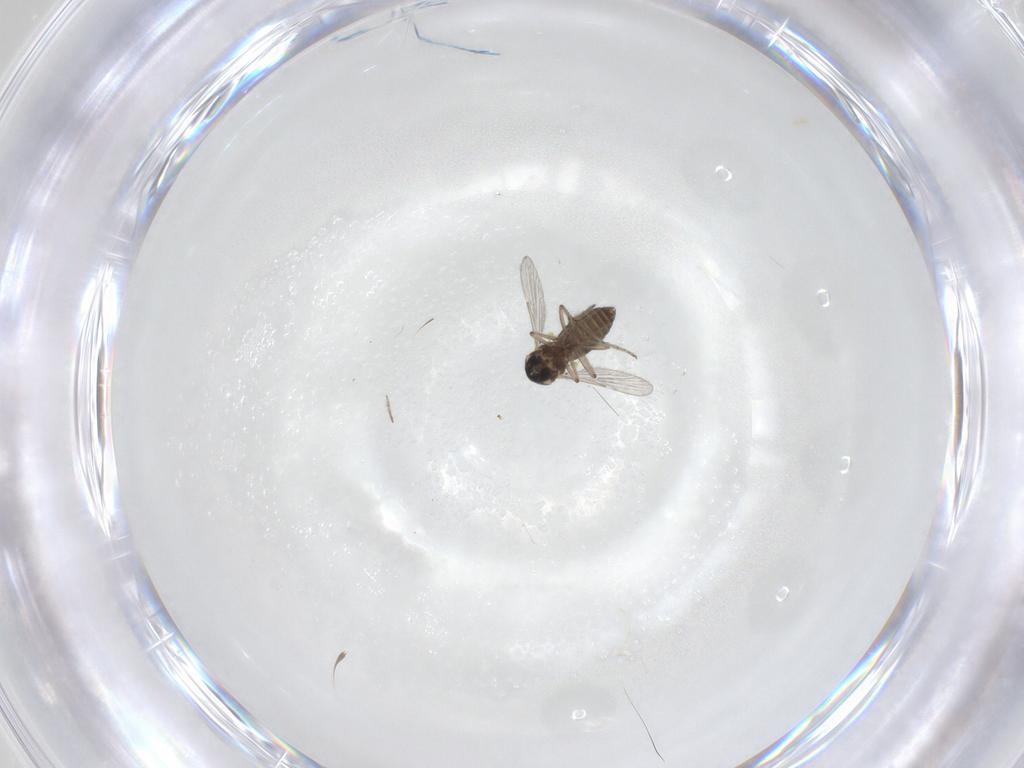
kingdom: Animalia
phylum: Arthropoda
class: Insecta
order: Diptera
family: Ceratopogonidae
